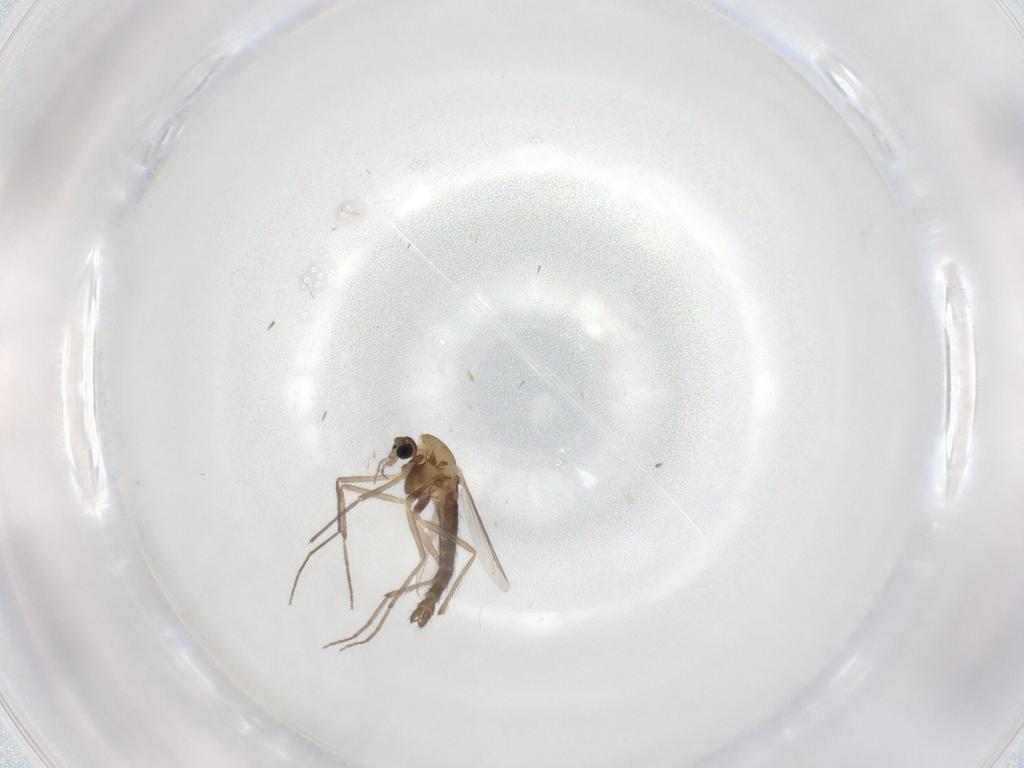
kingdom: Animalia
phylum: Arthropoda
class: Insecta
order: Diptera
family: Chironomidae
